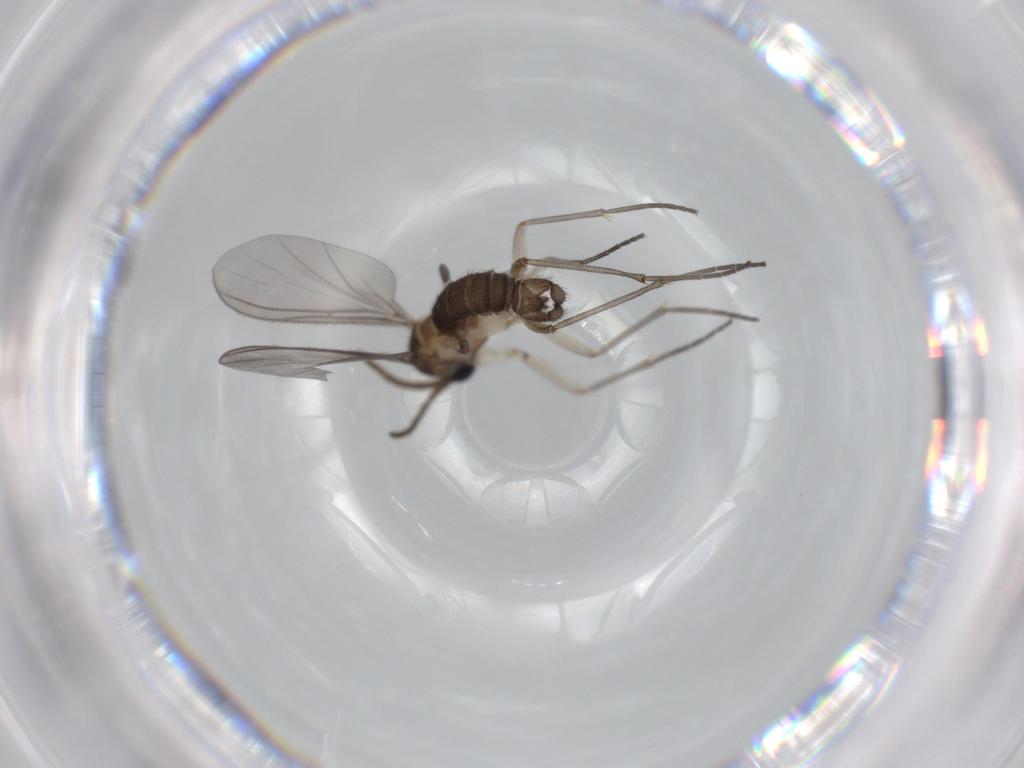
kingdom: Animalia
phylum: Arthropoda
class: Insecta
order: Diptera
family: Sciaridae
